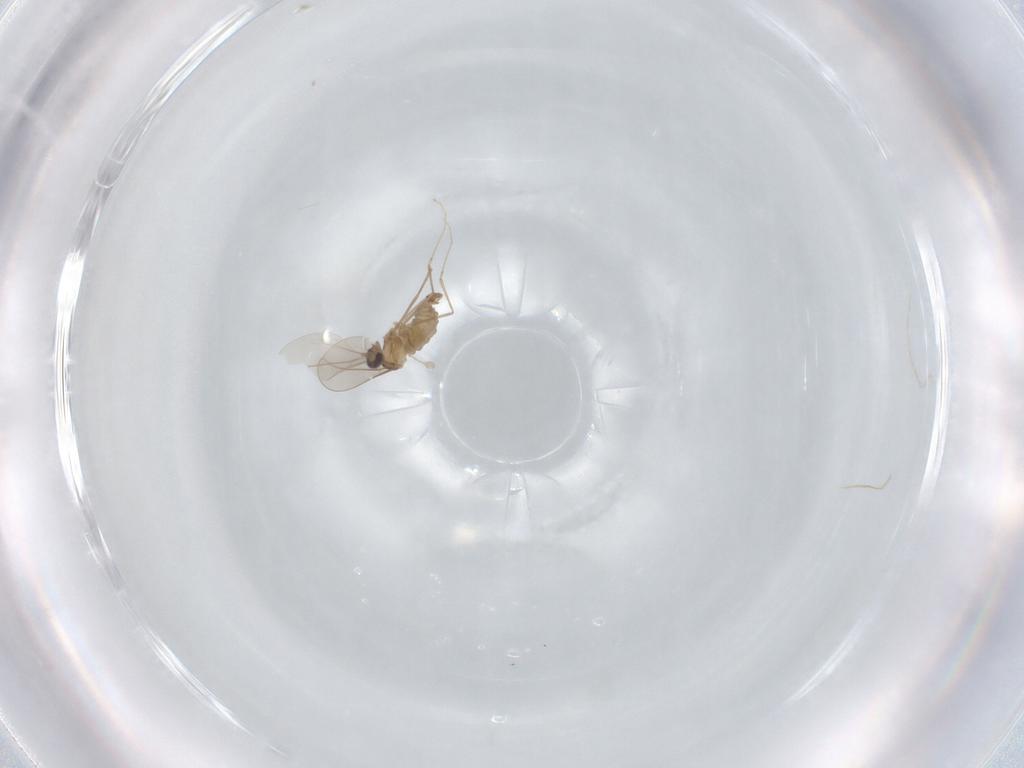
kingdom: Animalia
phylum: Arthropoda
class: Insecta
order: Diptera
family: Cecidomyiidae
